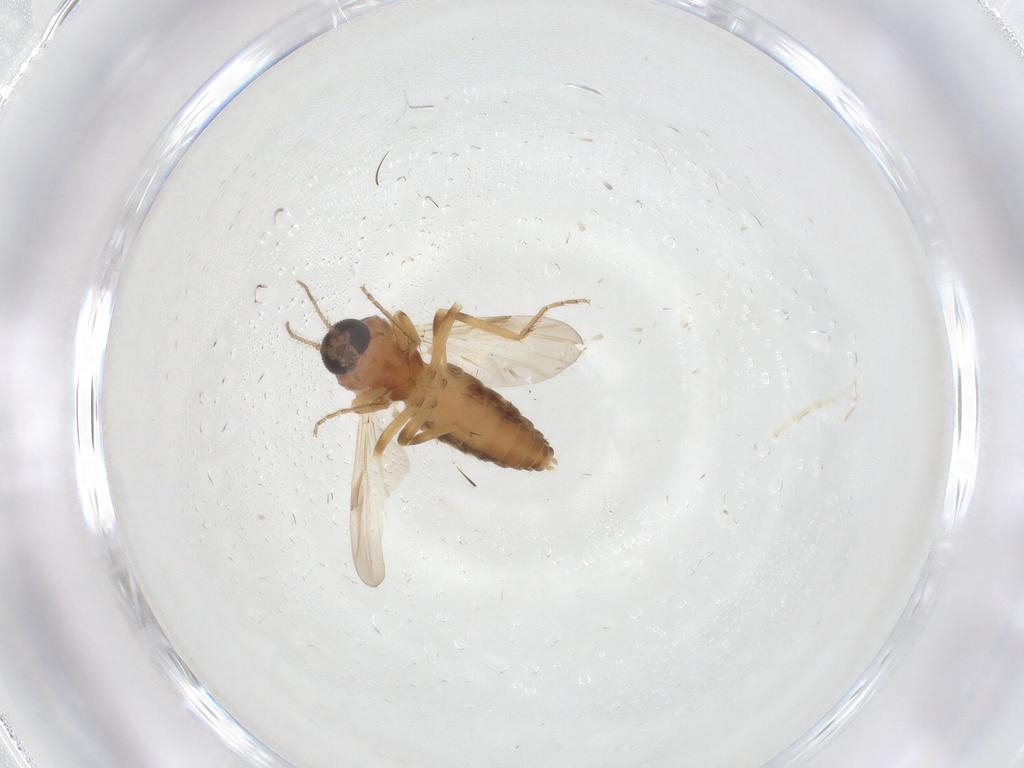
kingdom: Animalia
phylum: Arthropoda
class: Insecta
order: Diptera
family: Ceratopogonidae
